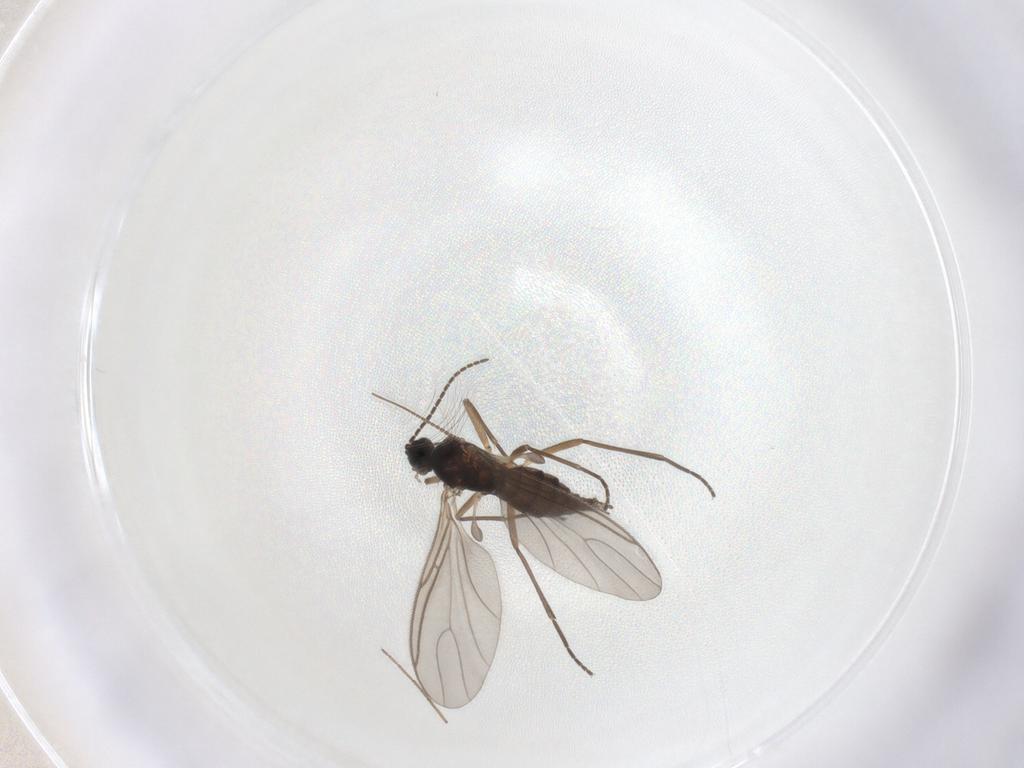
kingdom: Animalia
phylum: Arthropoda
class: Insecta
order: Diptera
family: Sciaridae
